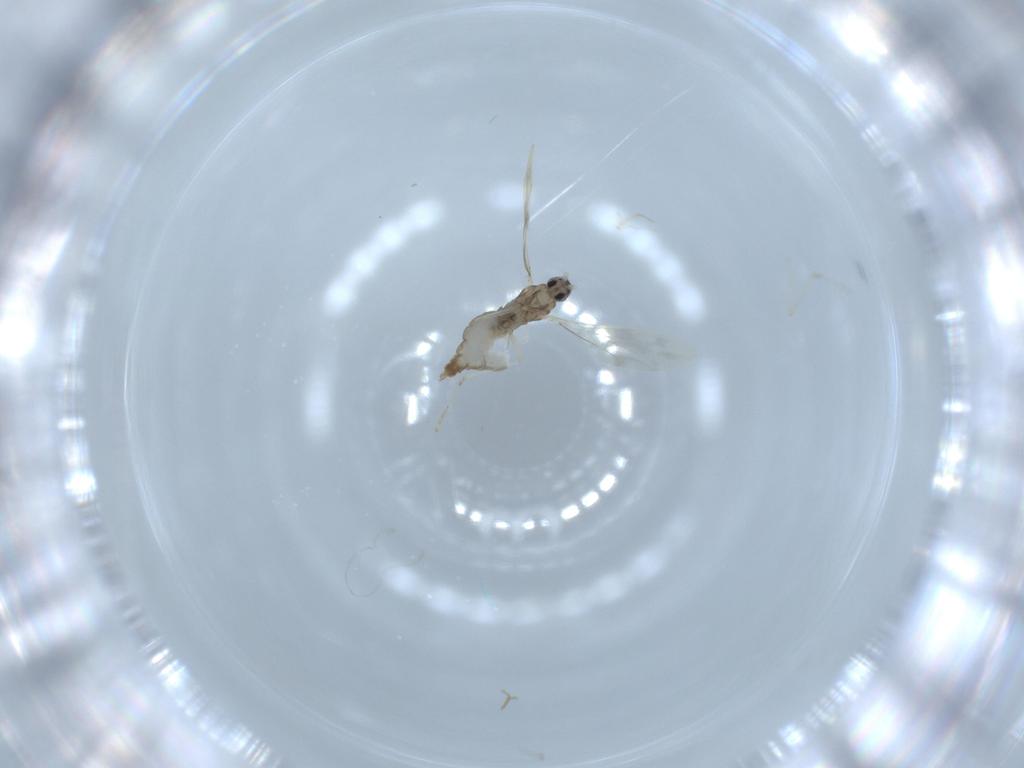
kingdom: Animalia
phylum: Arthropoda
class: Insecta
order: Diptera
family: Cecidomyiidae
